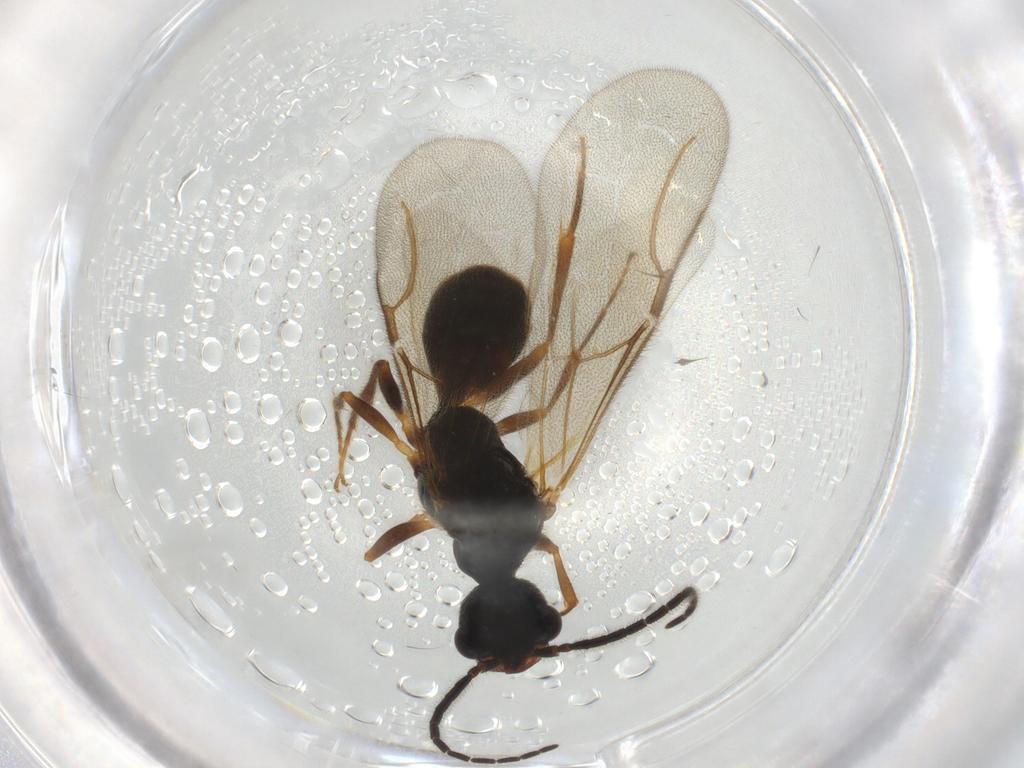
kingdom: Animalia
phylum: Arthropoda
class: Insecta
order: Hymenoptera
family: Bethylidae
